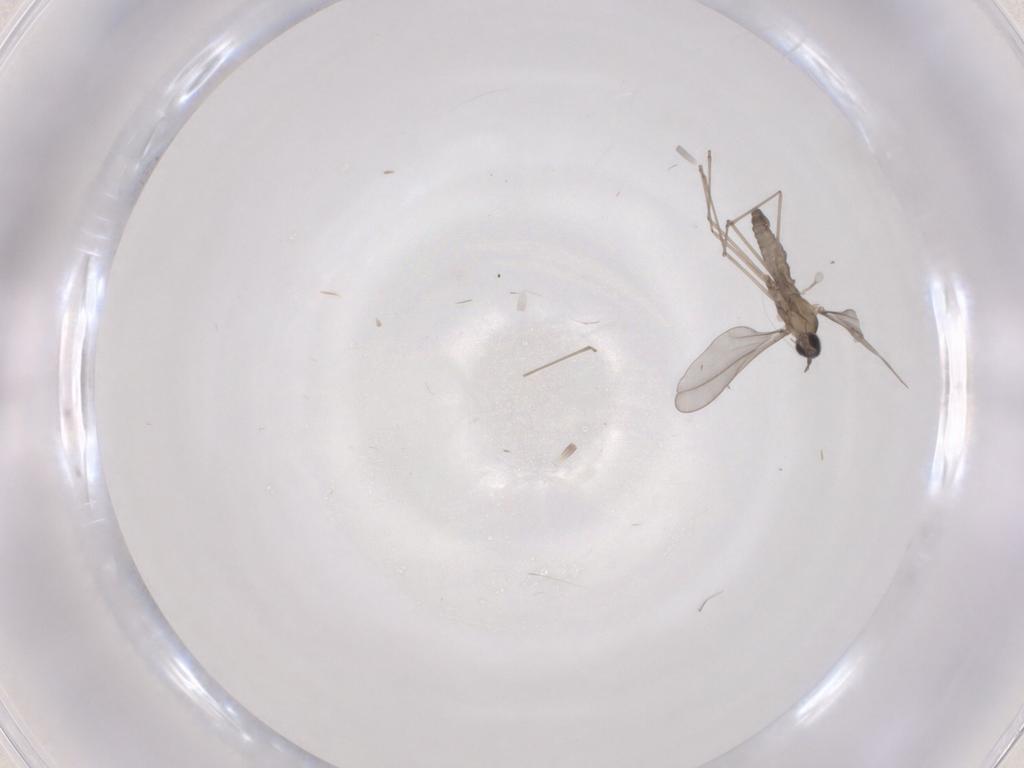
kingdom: Animalia
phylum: Arthropoda
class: Insecta
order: Diptera
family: Cecidomyiidae
